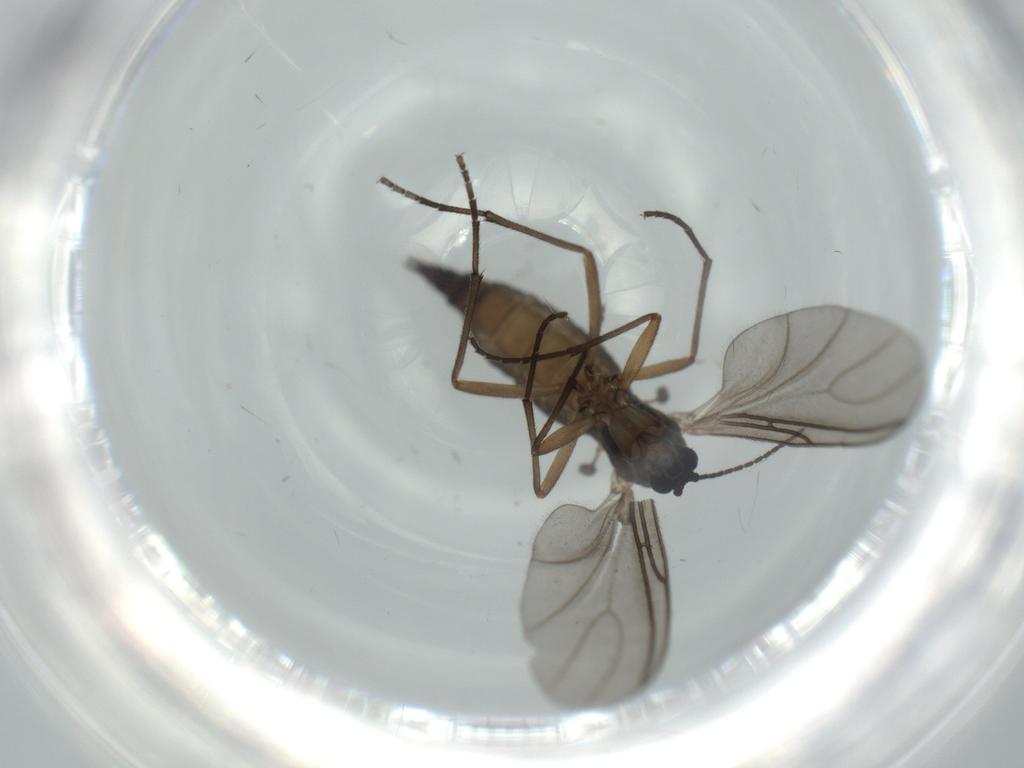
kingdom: Animalia
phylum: Arthropoda
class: Insecta
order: Diptera
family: Sciaridae
